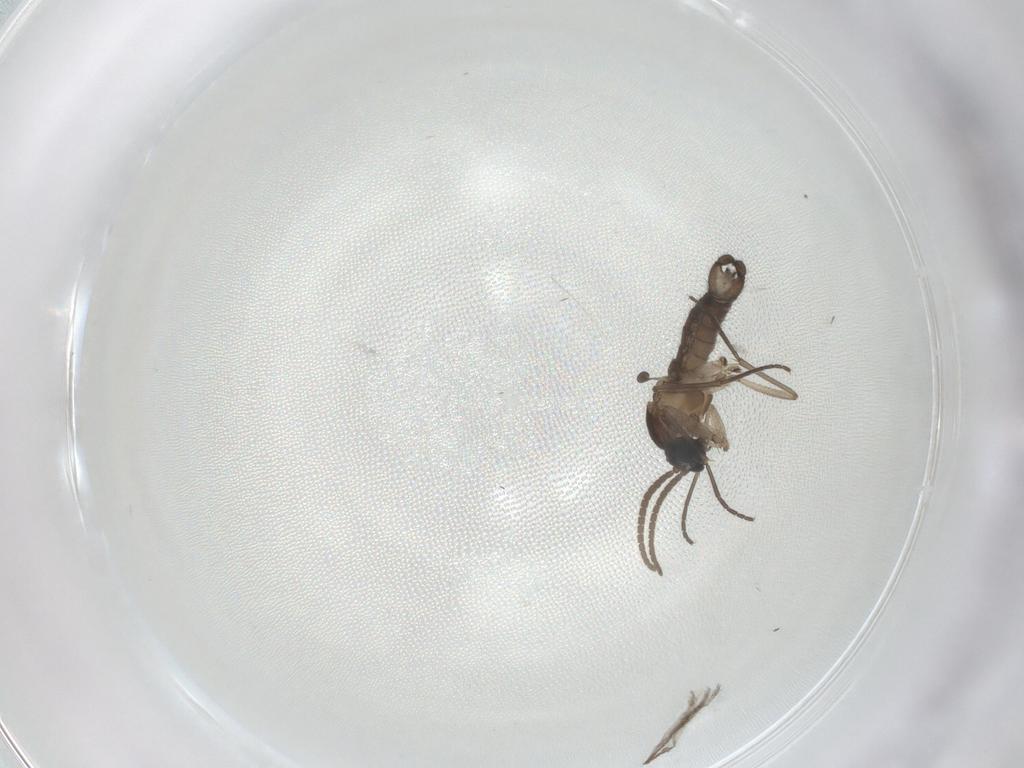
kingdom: Animalia
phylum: Arthropoda
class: Insecta
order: Diptera
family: Sciaridae
